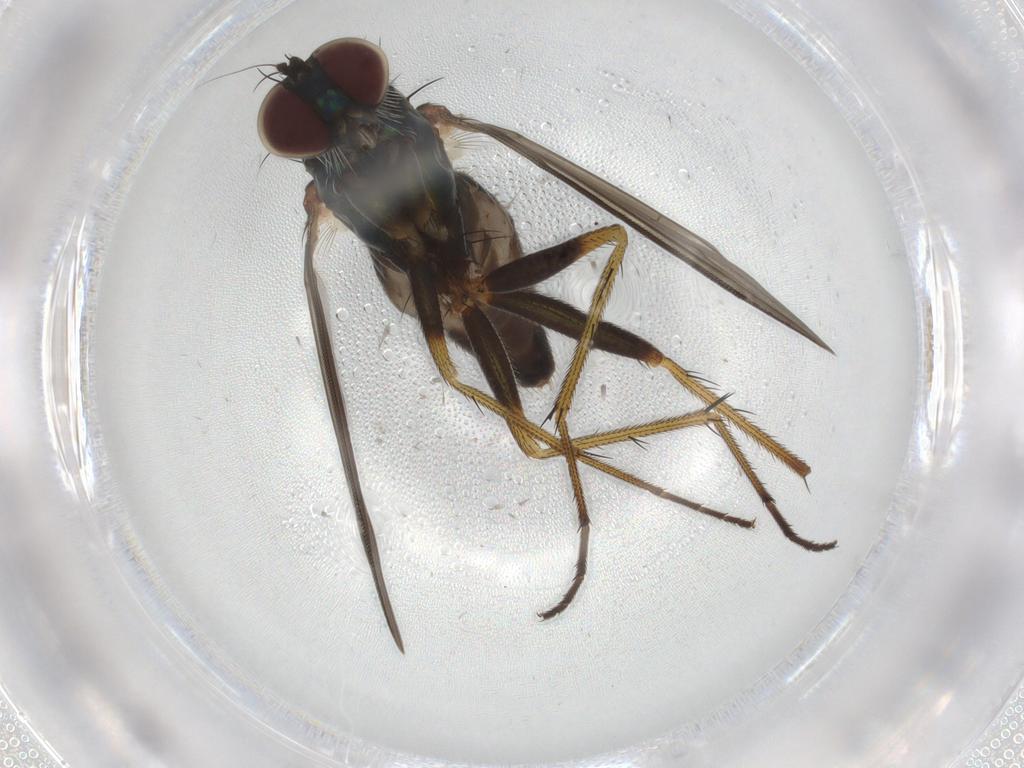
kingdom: Animalia
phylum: Arthropoda
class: Insecta
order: Diptera
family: Ceratopogonidae
